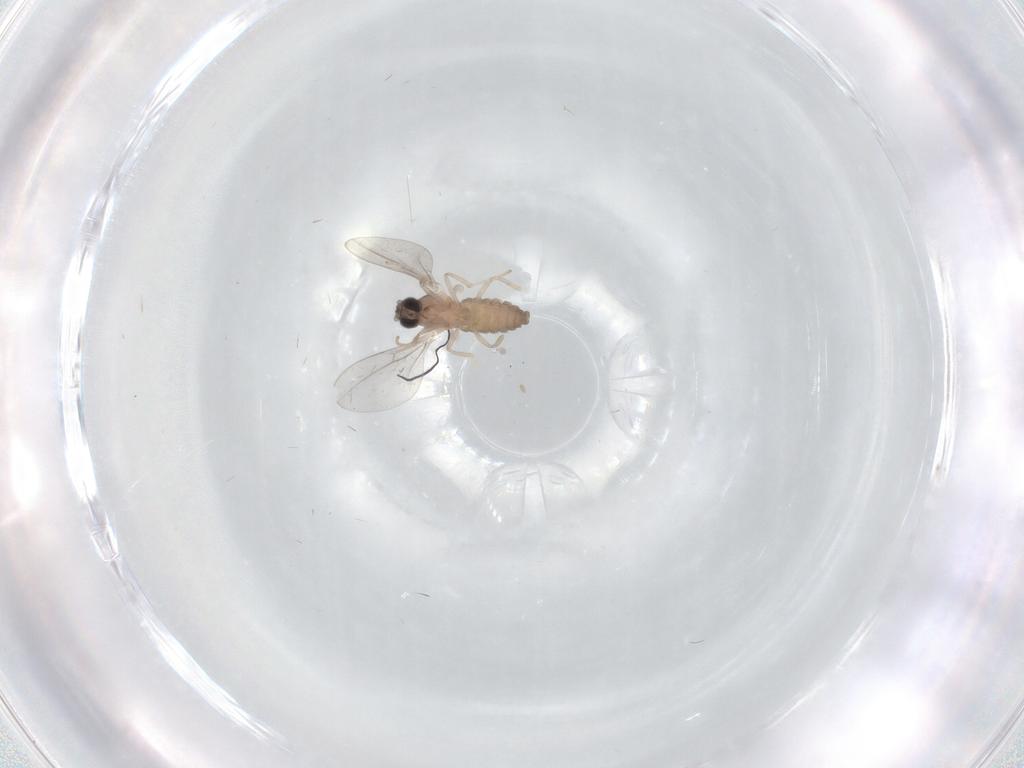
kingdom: Animalia
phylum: Arthropoda
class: Insecta
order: Diptera
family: Cecidomyiidae
